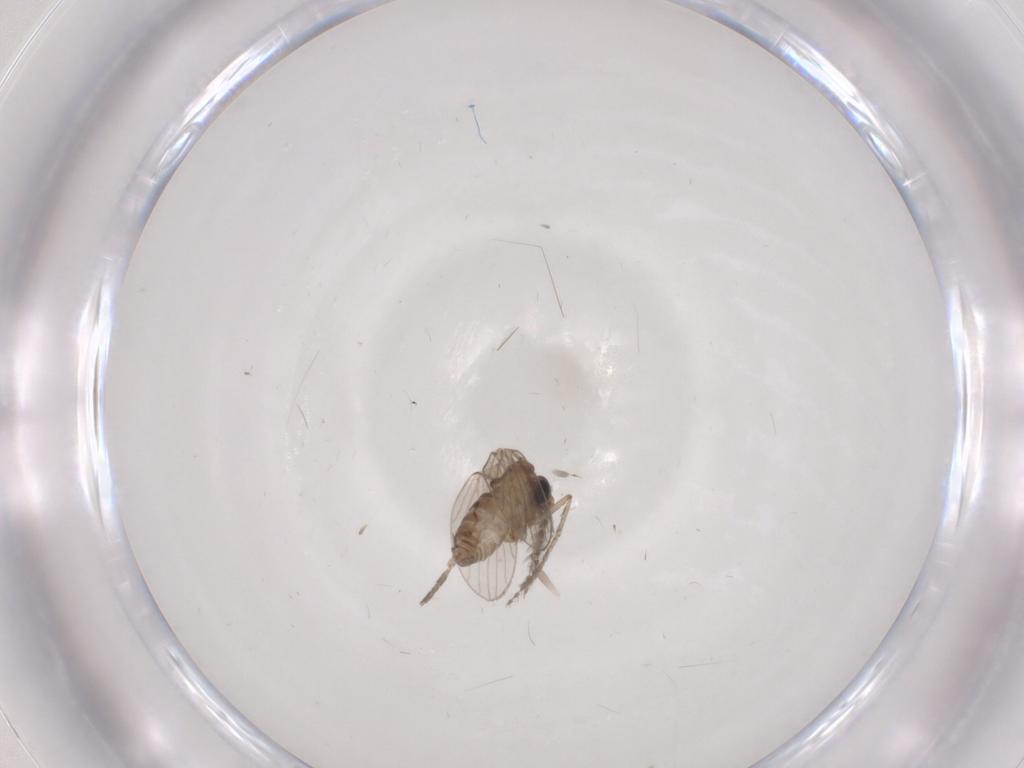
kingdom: Animalia
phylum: Arthropoda
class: Insecta
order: Diptera
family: Psychodidae
